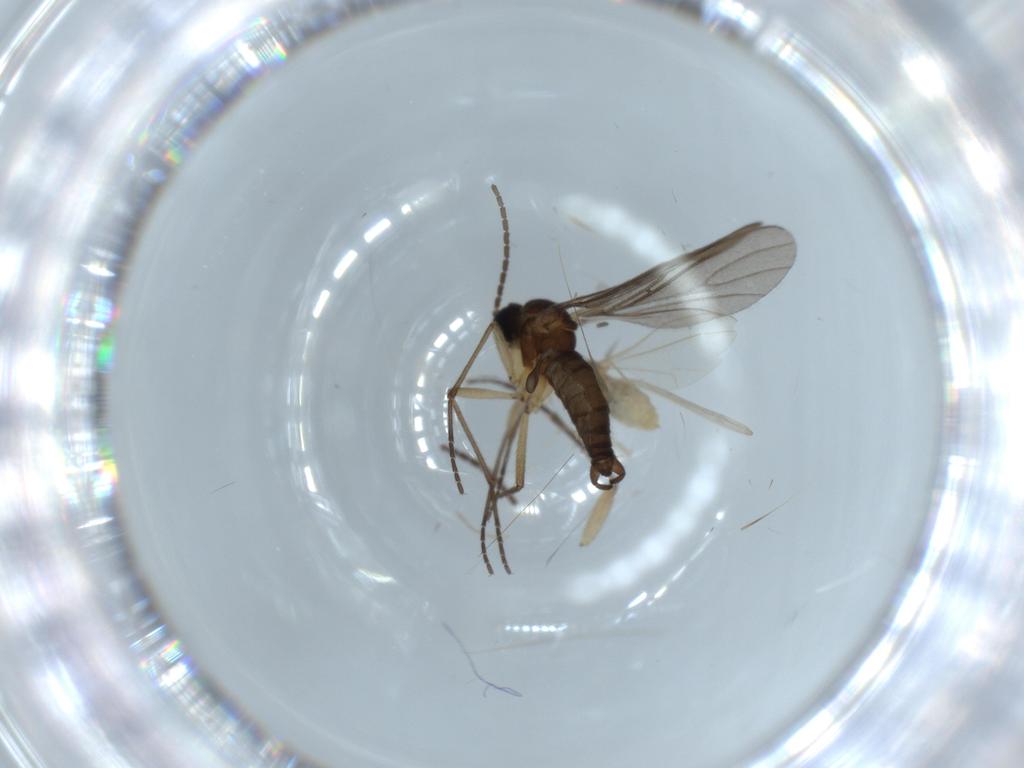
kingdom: Animalia
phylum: Arthropoda
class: Insecta
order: Diptera
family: Cecidomyiidae
